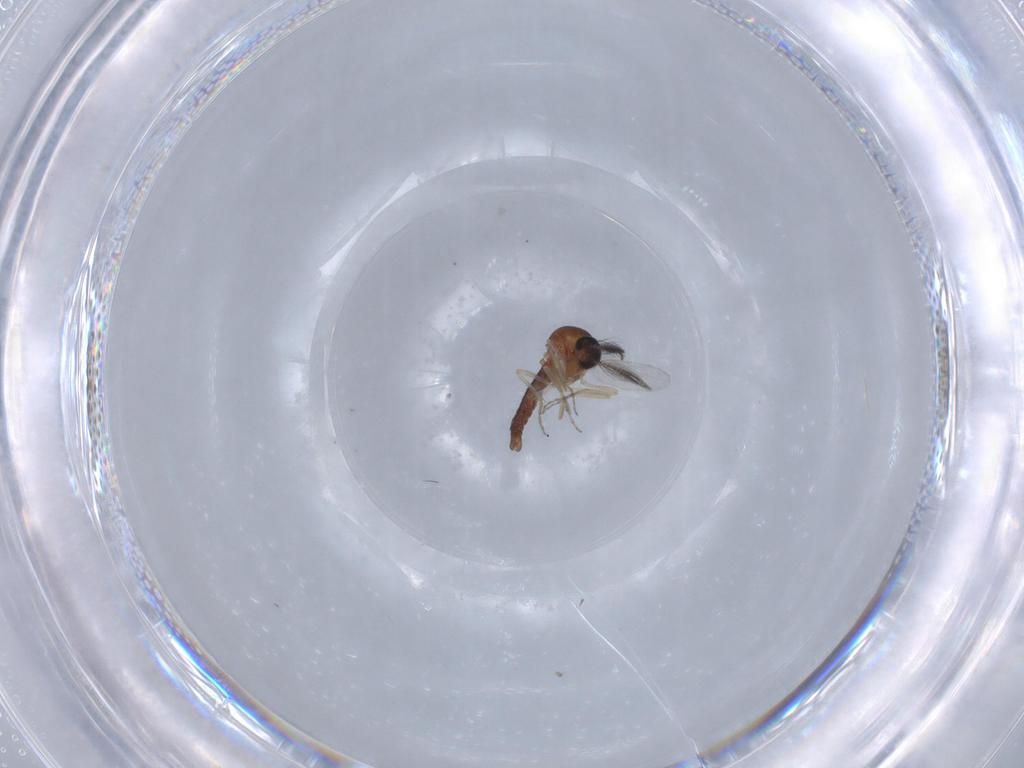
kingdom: Animalia
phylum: Arthropoda
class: Insecta
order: Diptera
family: Ceratopogonidae
